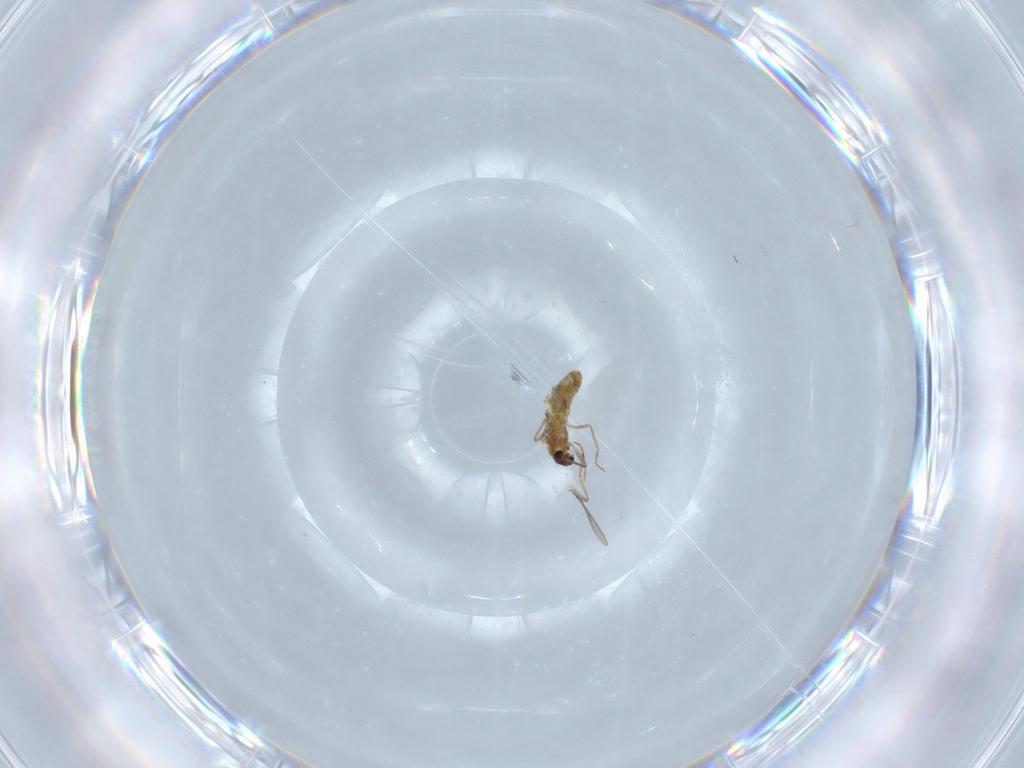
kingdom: Animalia
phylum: Arthropoda
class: Insecta
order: Diptera
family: Chironomidae
